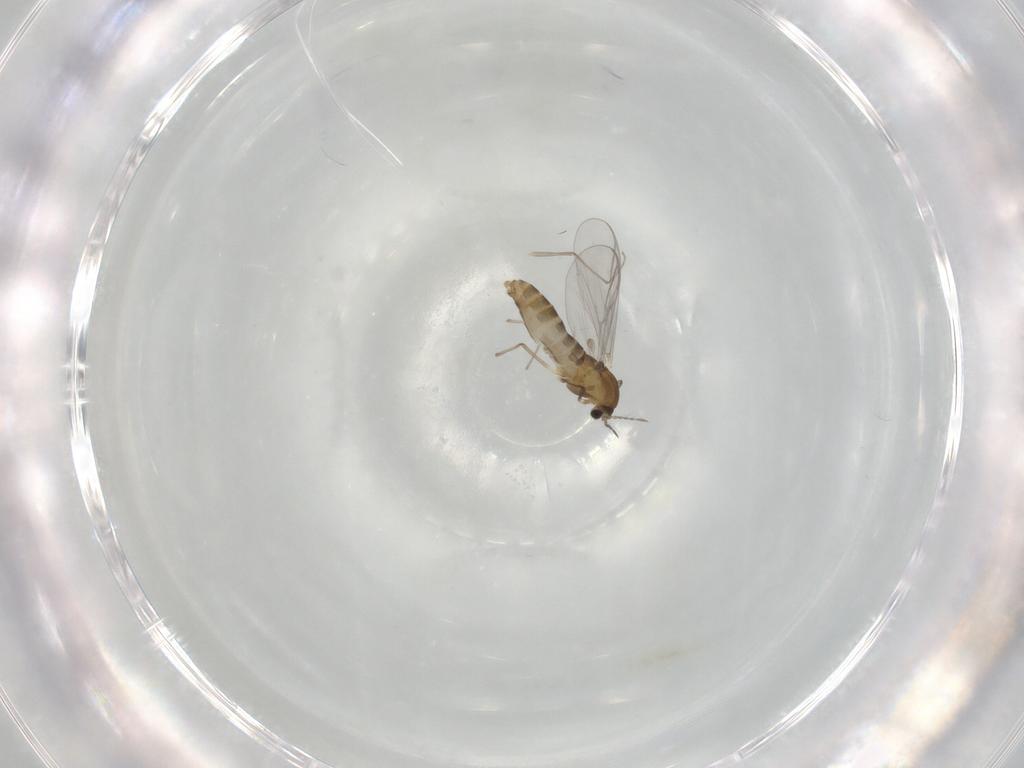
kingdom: Animalia
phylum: Arthropoda
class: Insecta
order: Diptera
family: Chironomidae
